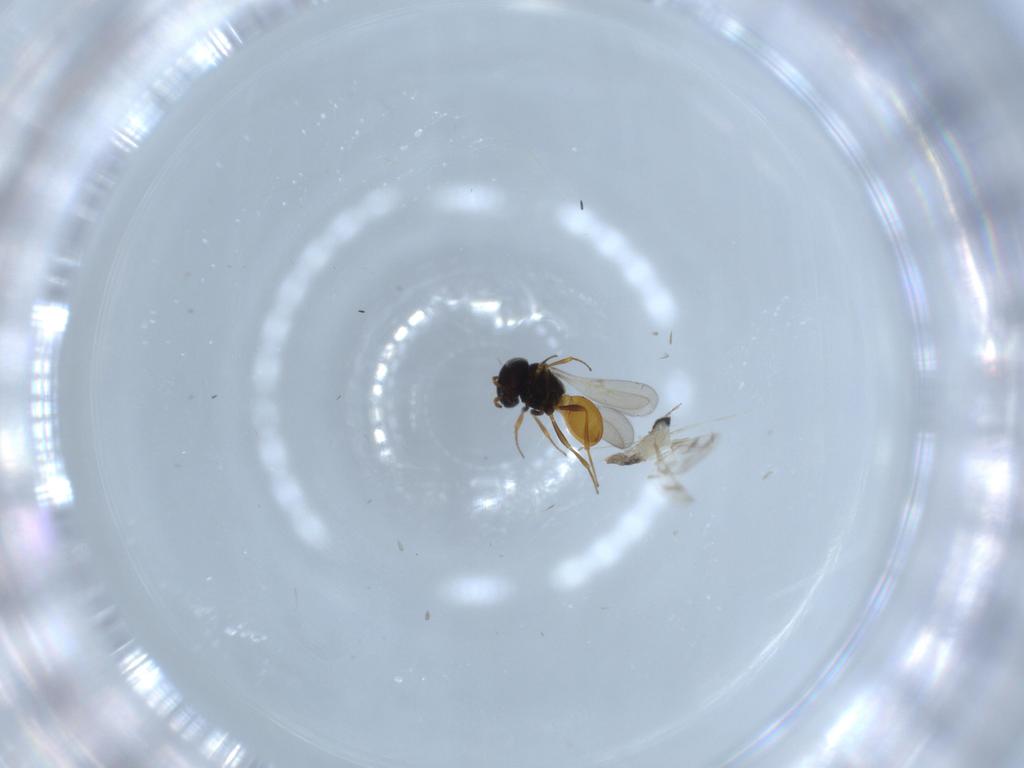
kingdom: Animalia
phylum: Arthropoda
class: Insecta
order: Hymenoptera
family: Scelionidae
